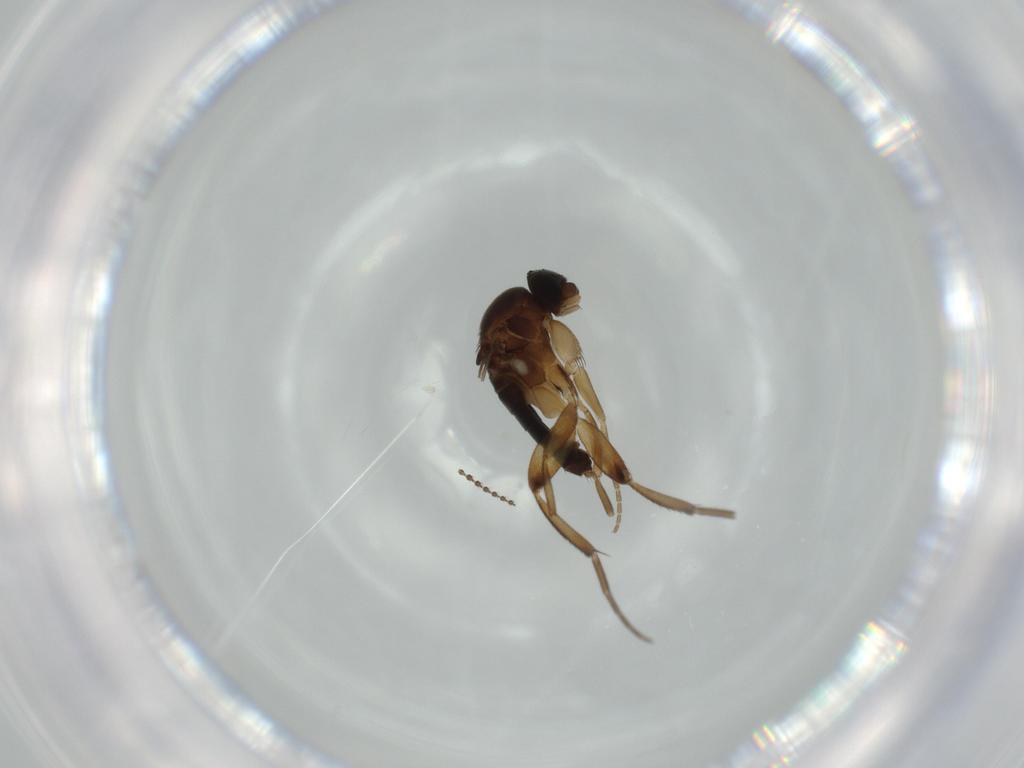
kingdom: Animalia
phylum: Arthropoda
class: Insecta
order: Diptera
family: Phoridae
